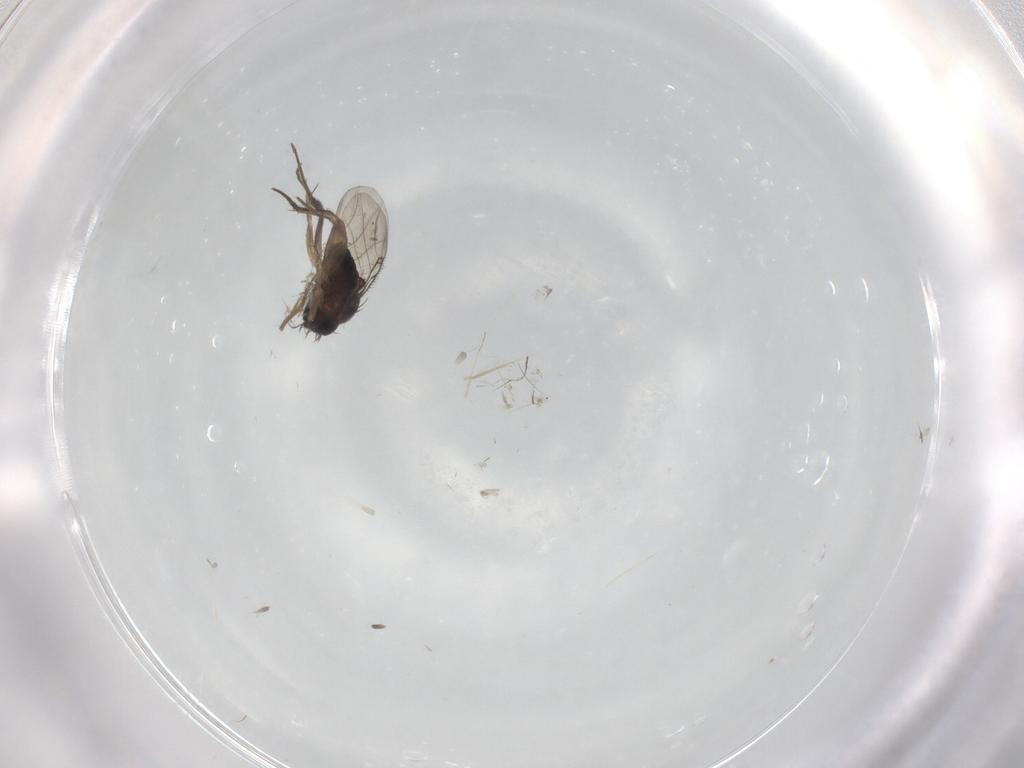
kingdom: Animalia
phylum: Arthropoda
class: Insecta
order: Diptera
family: Phoridae
